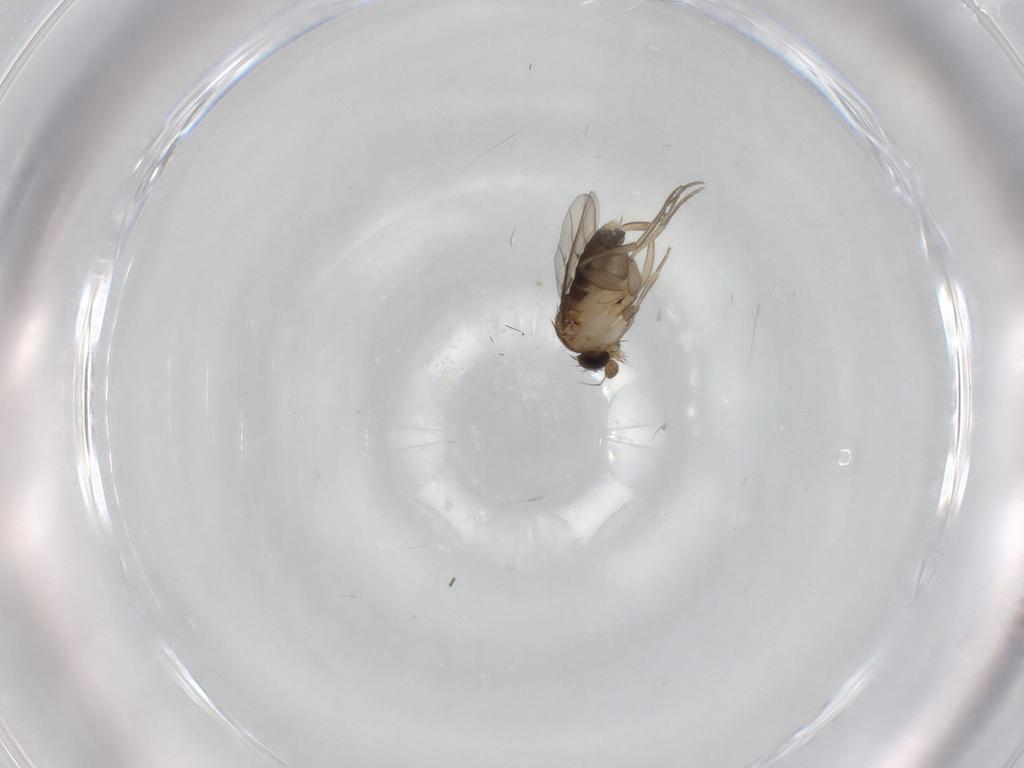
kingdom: Animalia
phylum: Arthropoda
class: Insecta
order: Diptera
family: Phoridae
